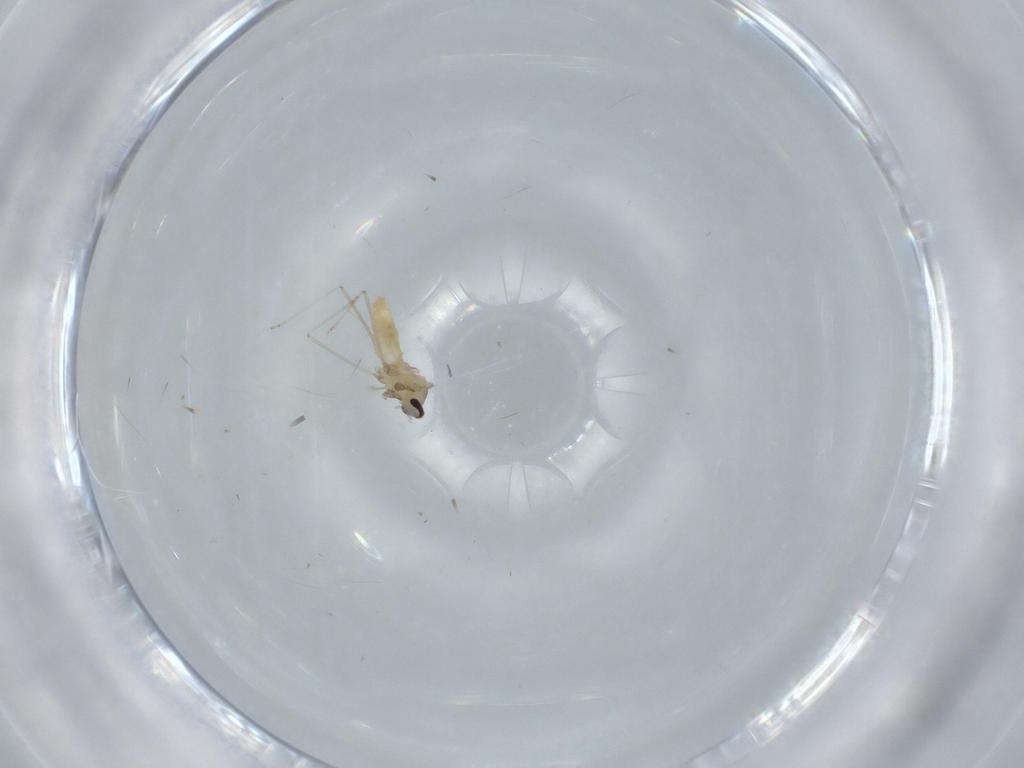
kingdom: Animalia
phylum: Arthropoda
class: Insecta
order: Diptera
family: Cecidomyiidae
